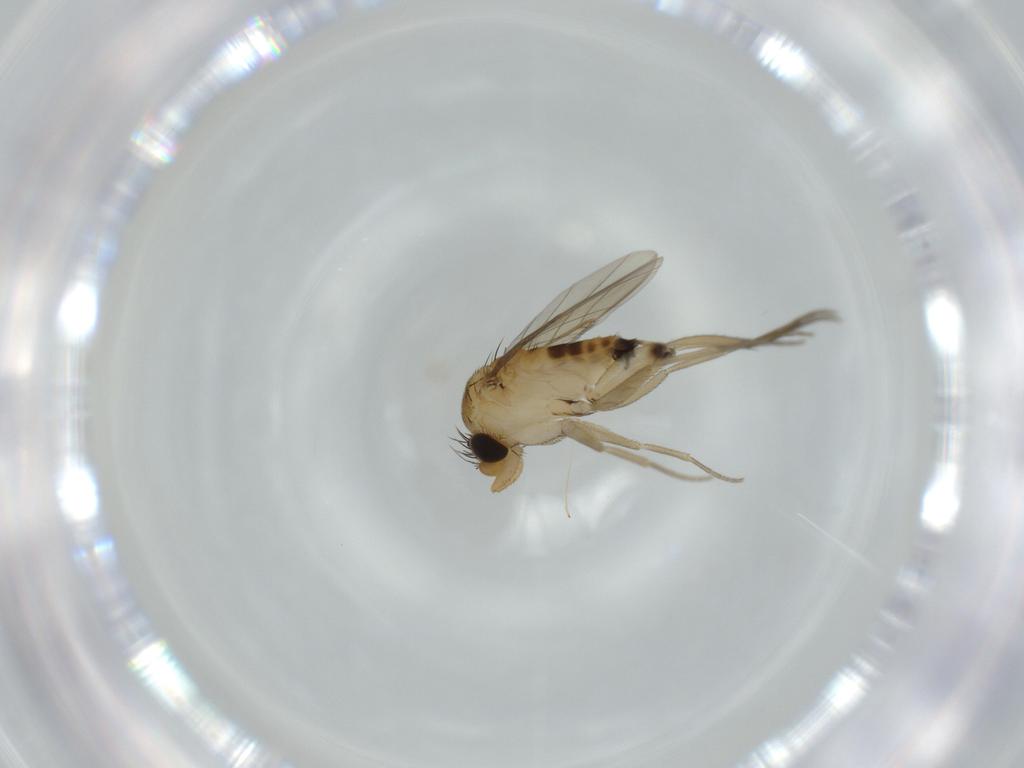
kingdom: Animalia
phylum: Arthropoda
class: Insecta
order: Diptera
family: Phoridae
